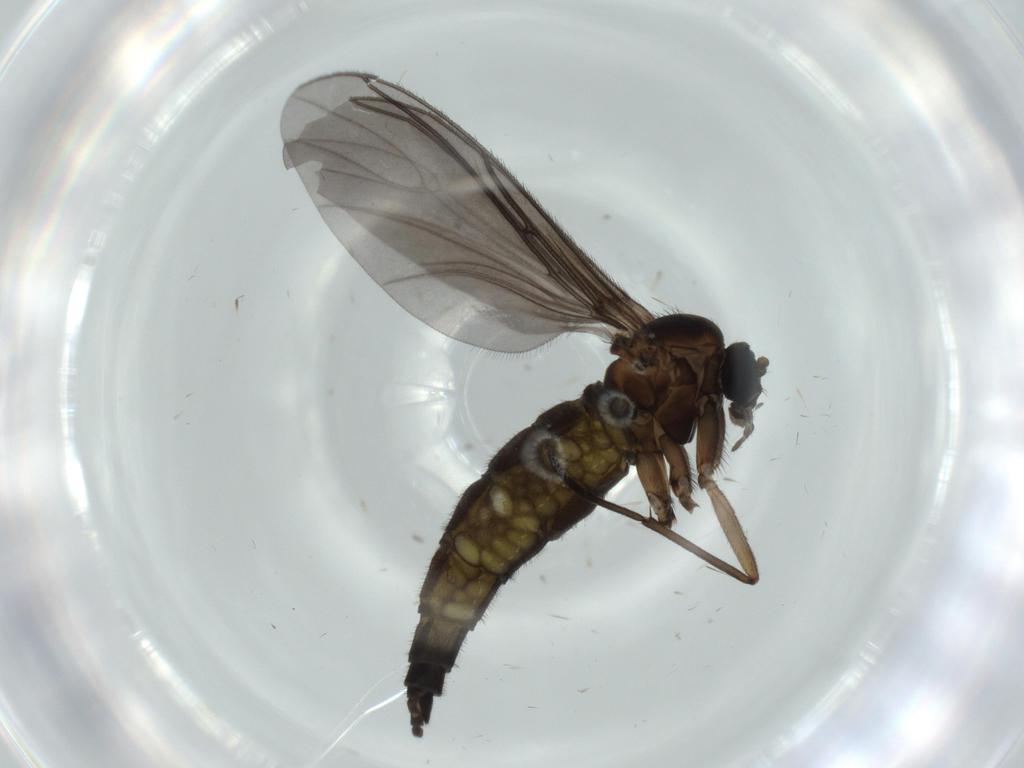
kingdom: Animalia
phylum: Arthropoda
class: Insecta
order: Diptera
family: Sciaridae
